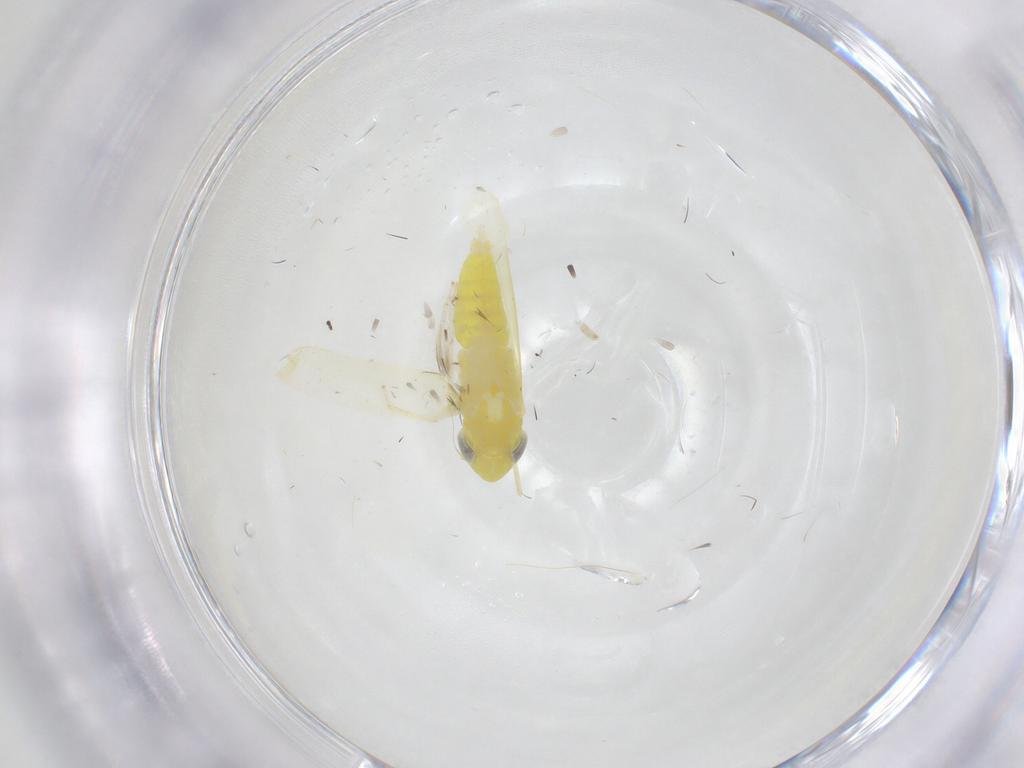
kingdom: Animalia
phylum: Arthropoda
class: Insecta
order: Hemiptera
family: Cicadellidae
